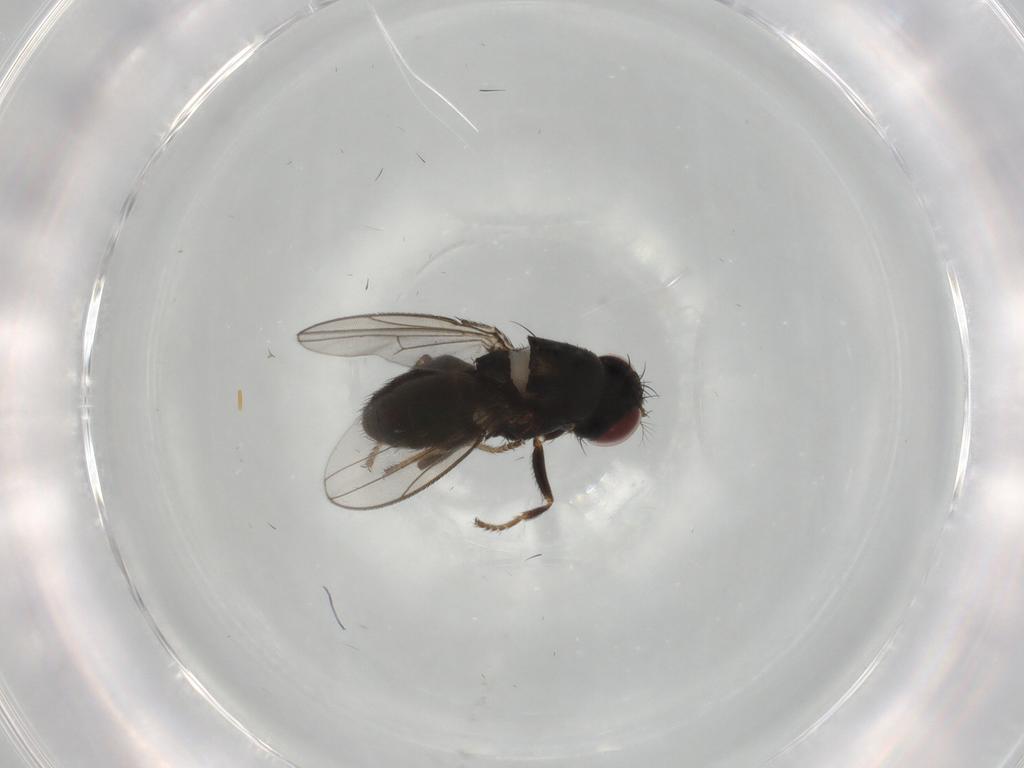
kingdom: Animalia
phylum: Arthropoda
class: Insecta
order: Diptera
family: Ephydridae
